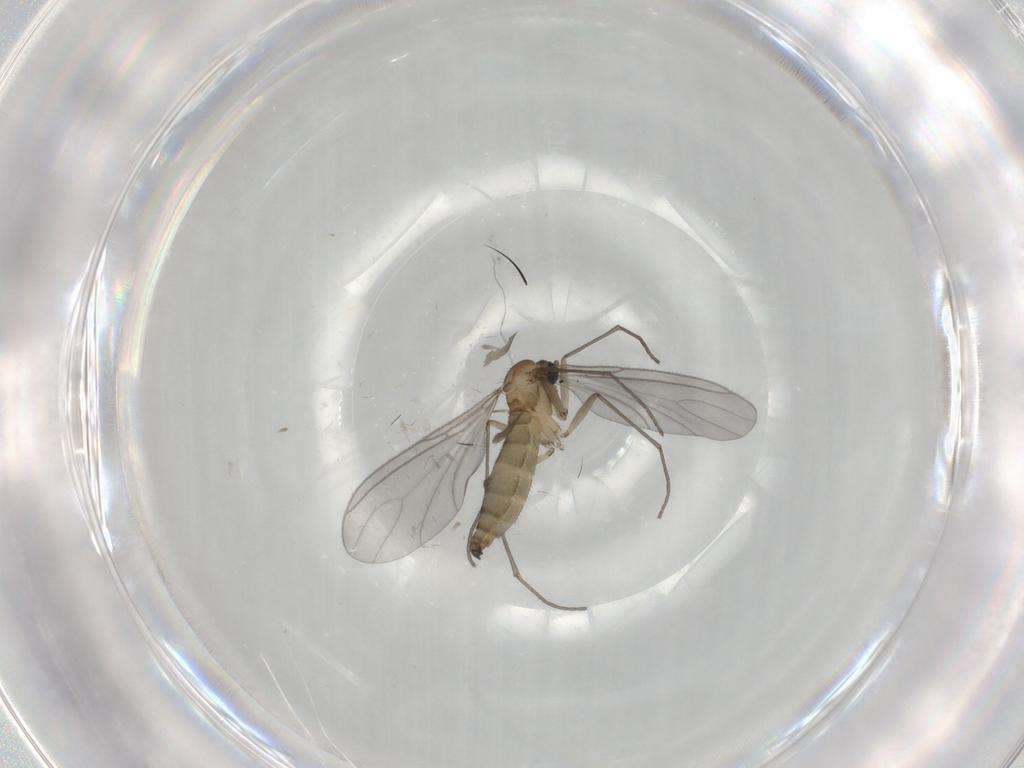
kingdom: Animalia
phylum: Arthropoda
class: Insecta
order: Diptera
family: Sciaridae
